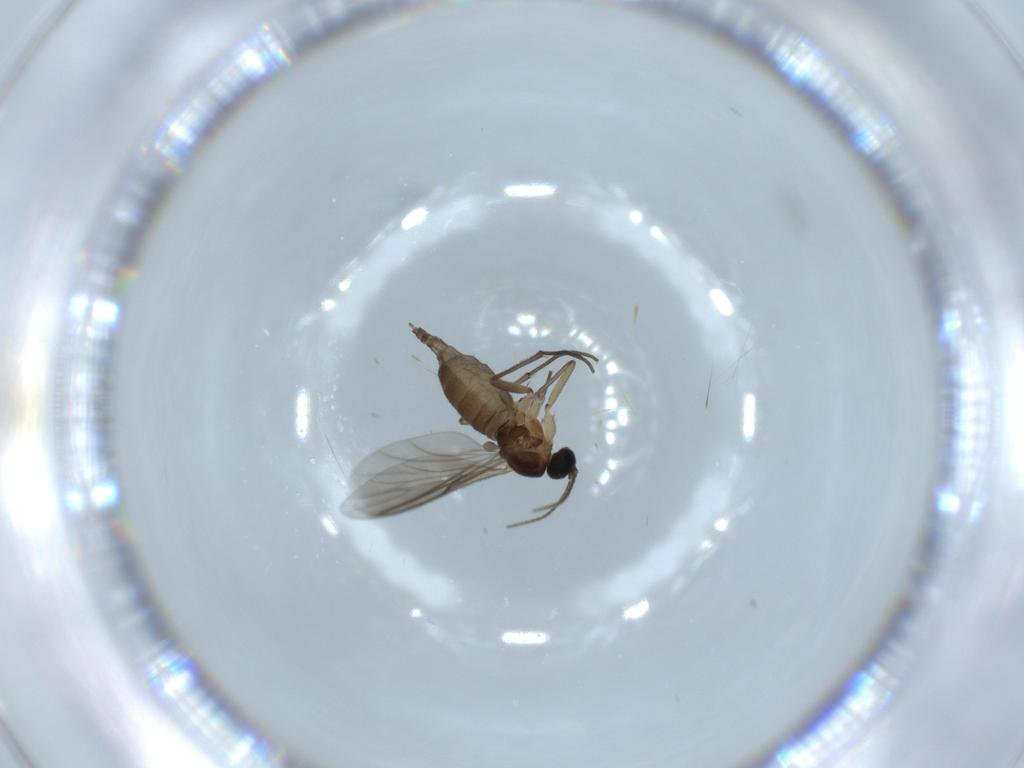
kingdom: Animalia
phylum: Arthropoda
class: Insecta
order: Diptera
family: Sciaridae
